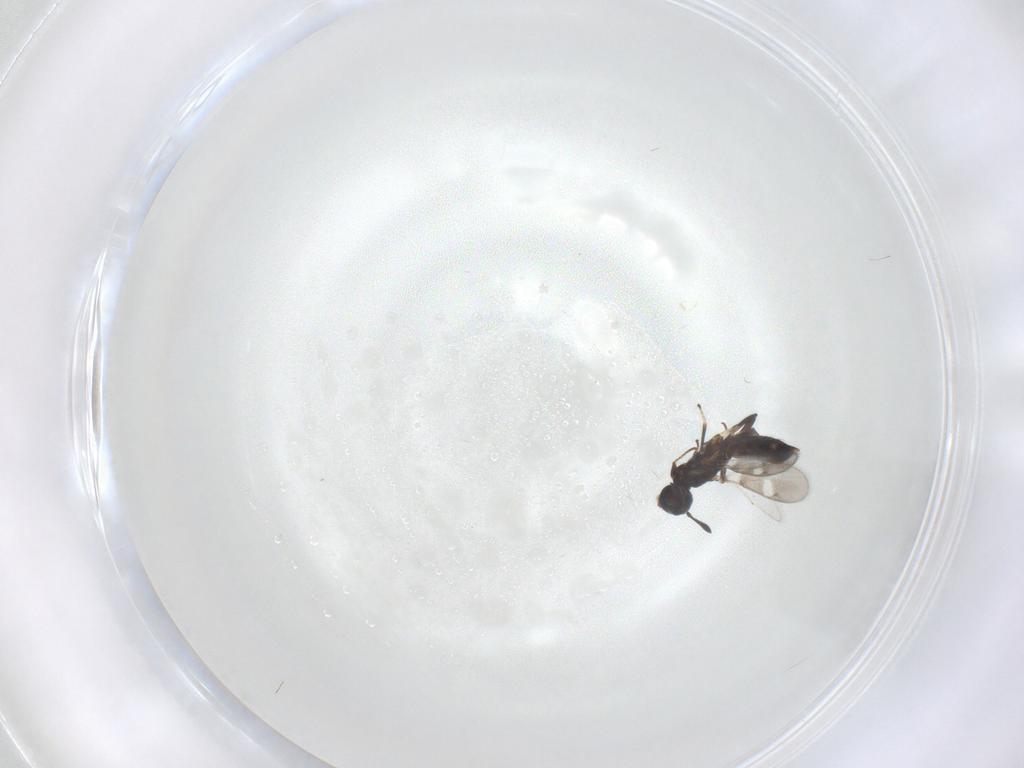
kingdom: Animalia
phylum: Arthropoda
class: Insecta
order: Hymenoptera
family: Eupelmidae
